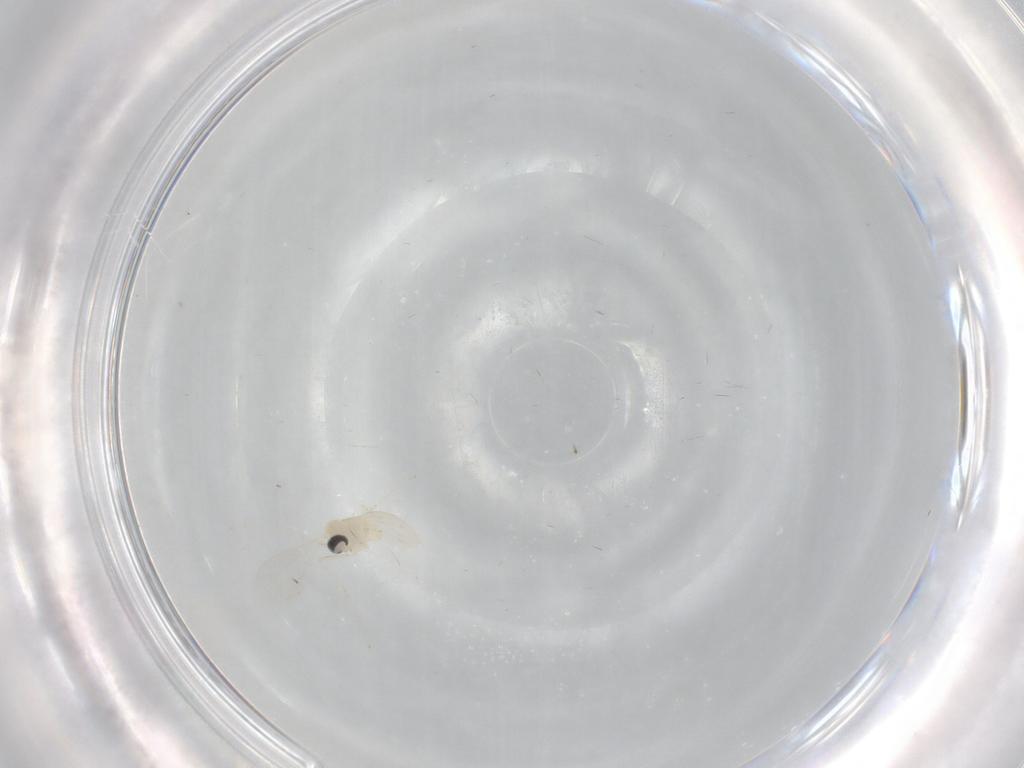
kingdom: Animalia
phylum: Arthropoda
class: Insecta
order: Diptera
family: Cecidomyiidae
